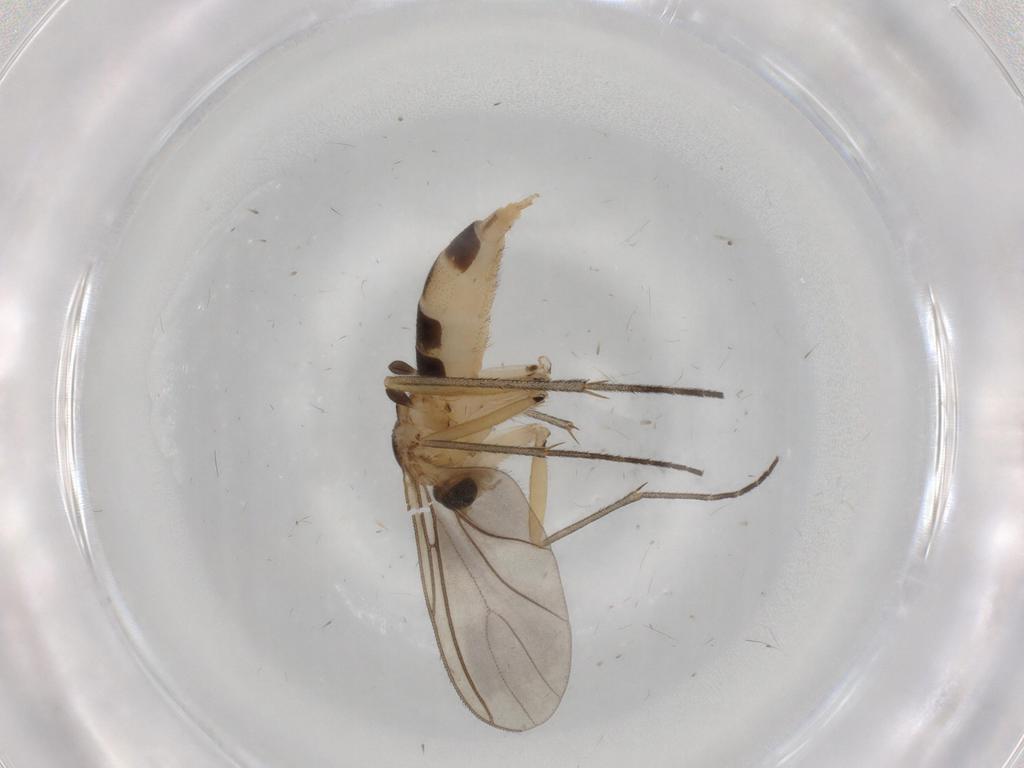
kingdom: Animalia
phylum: Arthropoda
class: Insecta
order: Diptera
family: Sciaridae
